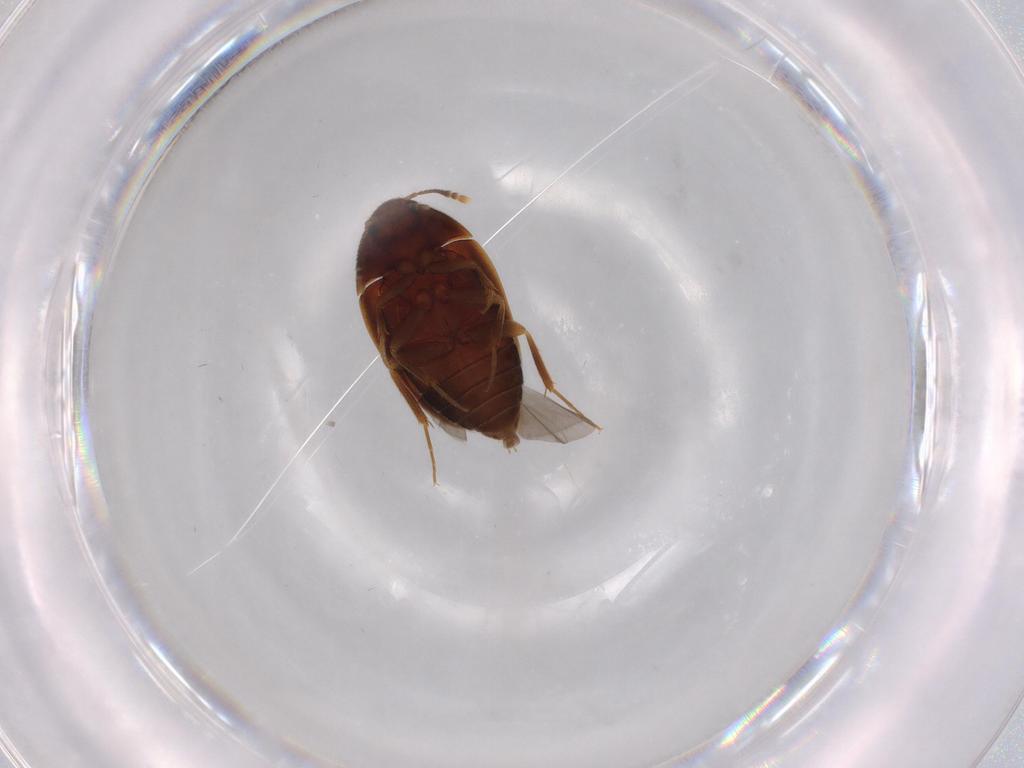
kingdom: Animalia
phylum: Arthropoda
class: Insecta
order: Coleoptera
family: Mycetophagidae
